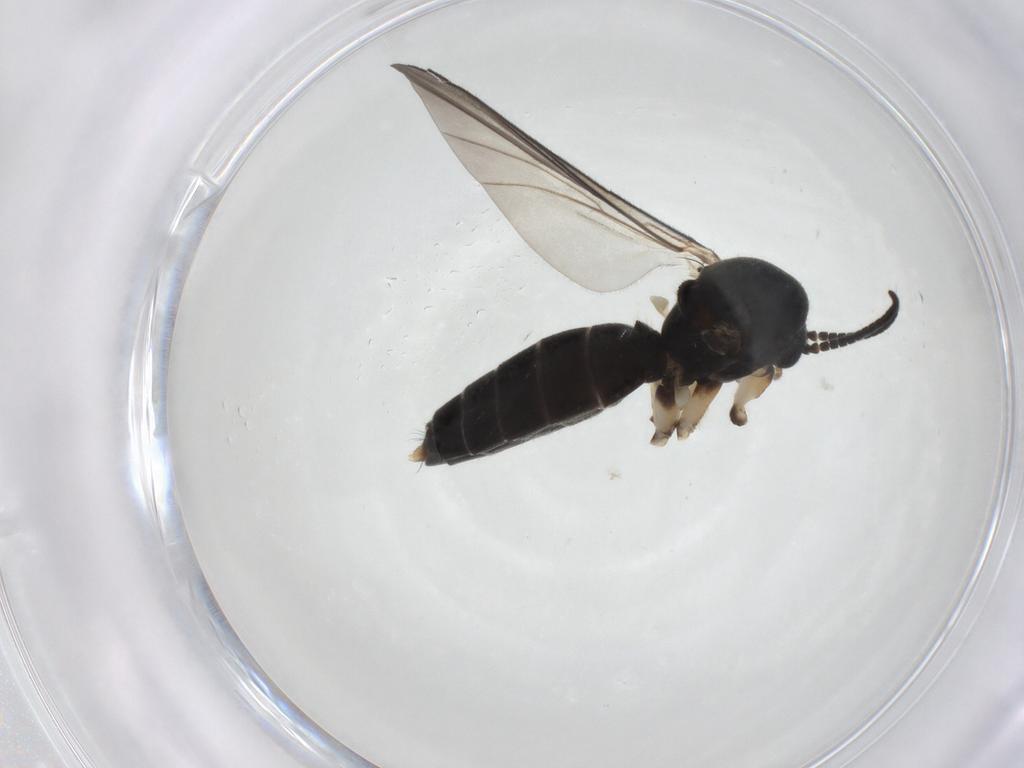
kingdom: Animalia
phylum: Arthropoda
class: Insecta
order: Diptera
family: Mycetophilidae
